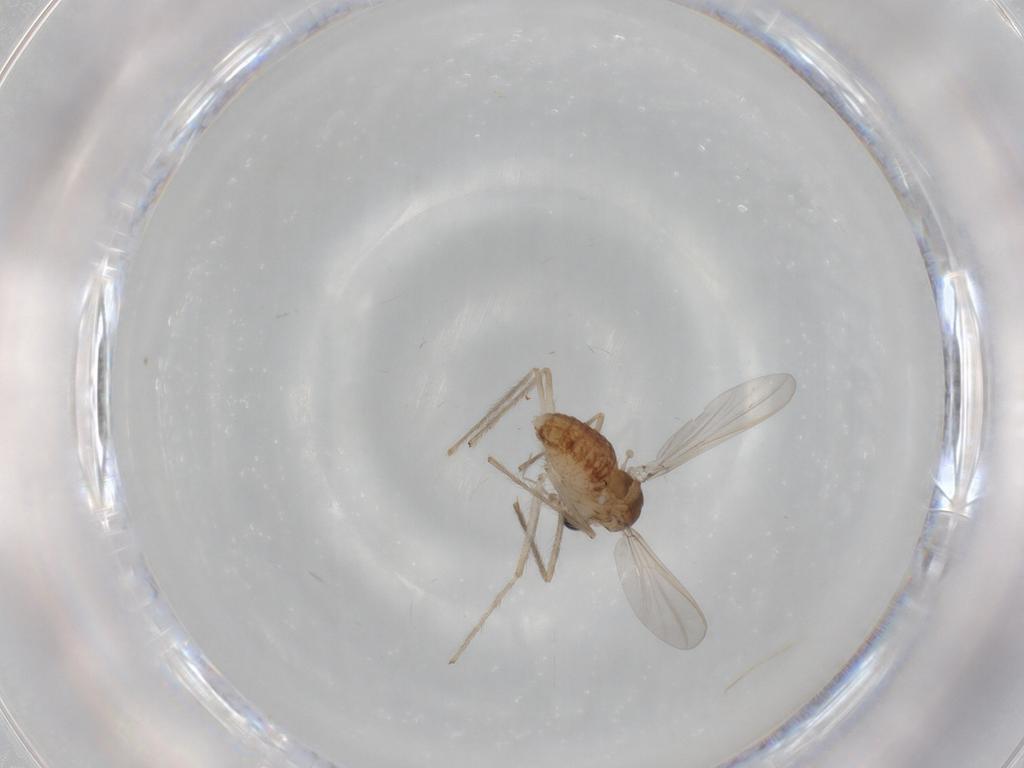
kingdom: Animalia
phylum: Arthropoda
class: Insecta
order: Diptera
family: Chironomidae
